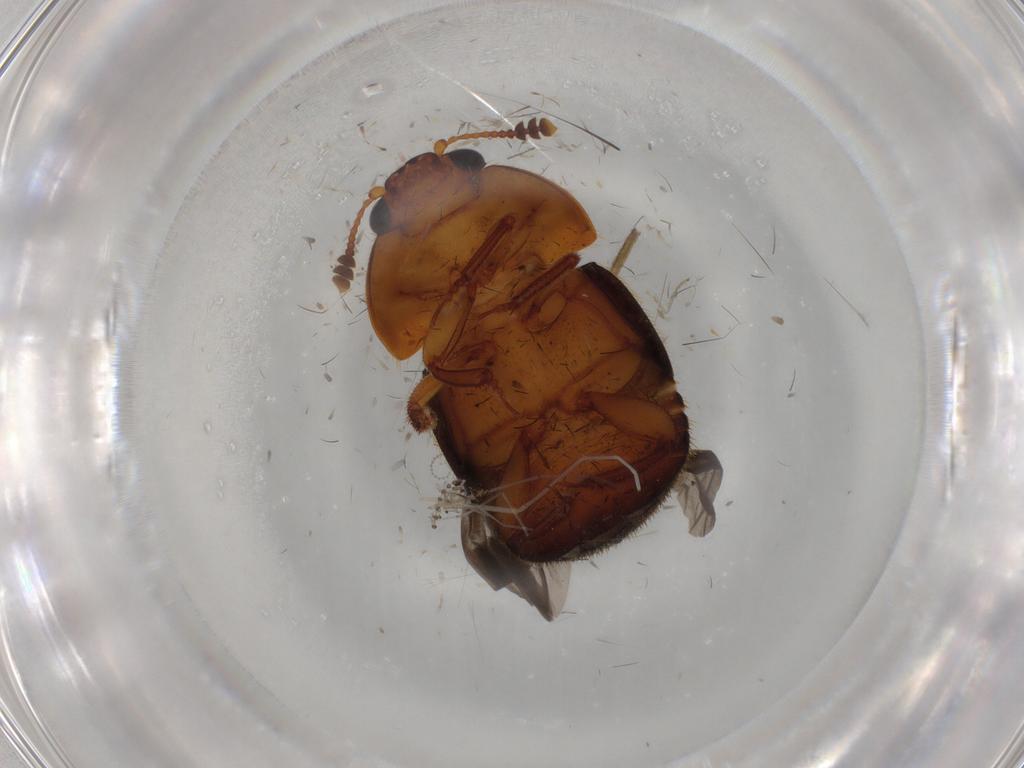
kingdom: Animalia
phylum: Arthropoda
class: Insecta
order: Coleoptera
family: Nitidulidae
